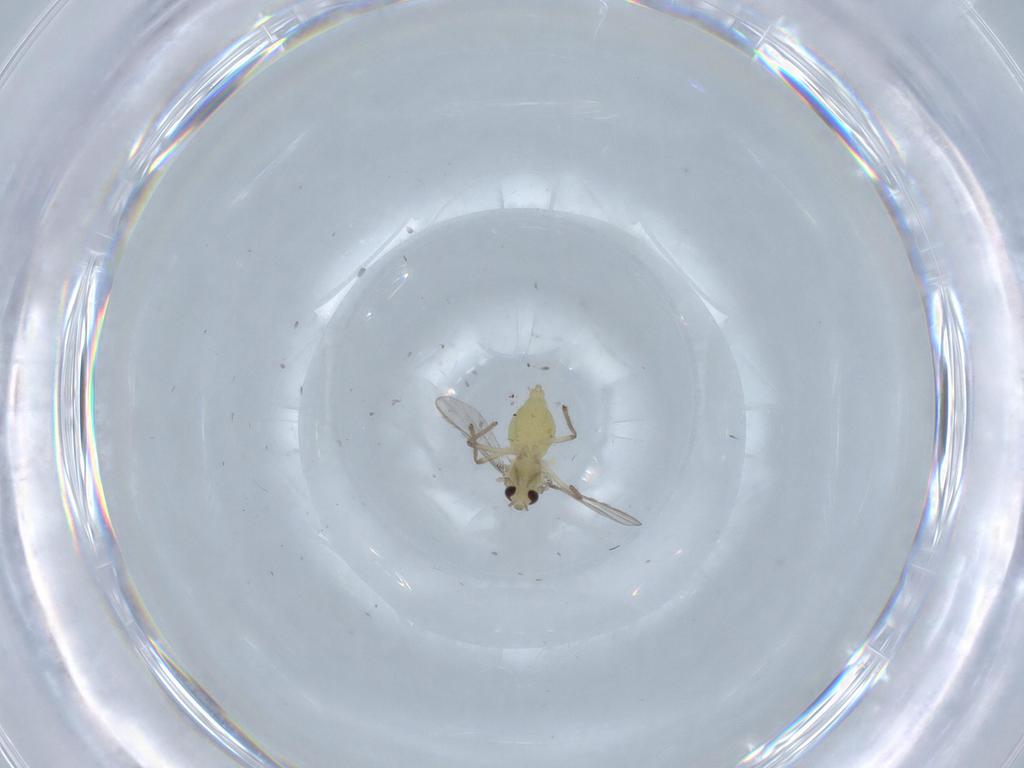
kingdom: Animalia
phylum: Arthropoda
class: Insecta
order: Diptera
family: Chironomidae
